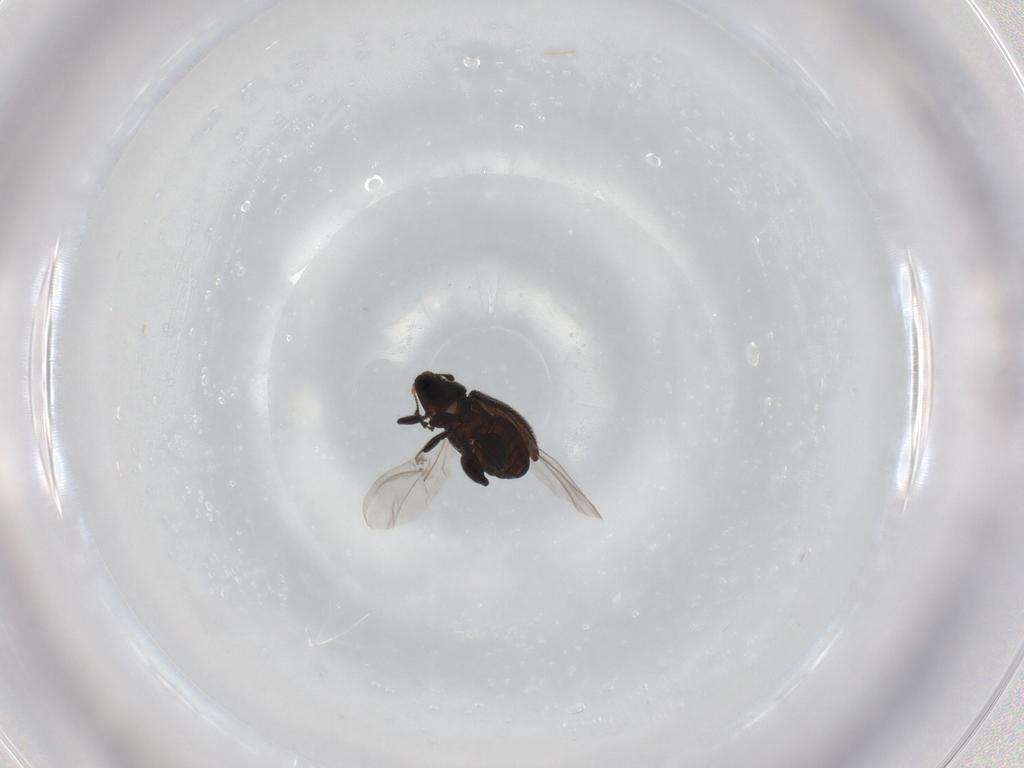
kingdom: Animalia
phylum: Arthropoda
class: Insecta
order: Coleoptera
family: Curculionidae
